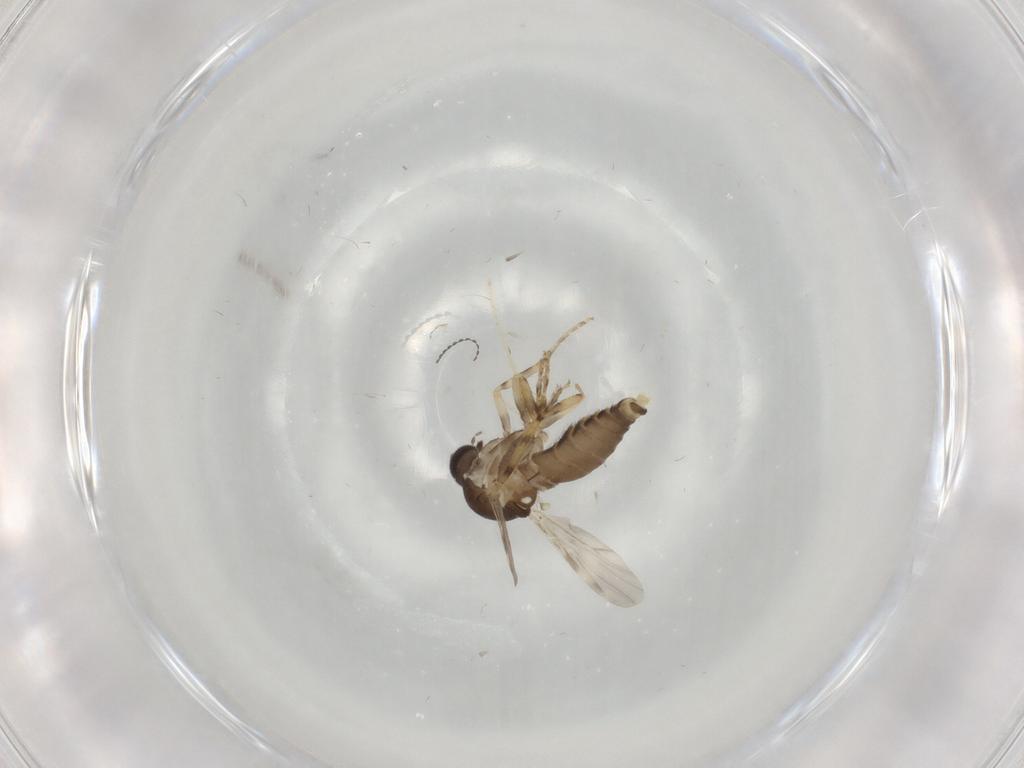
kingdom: Animalia
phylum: Arthropoda
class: Insecta
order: Diptera
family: Ceratopogonidae
